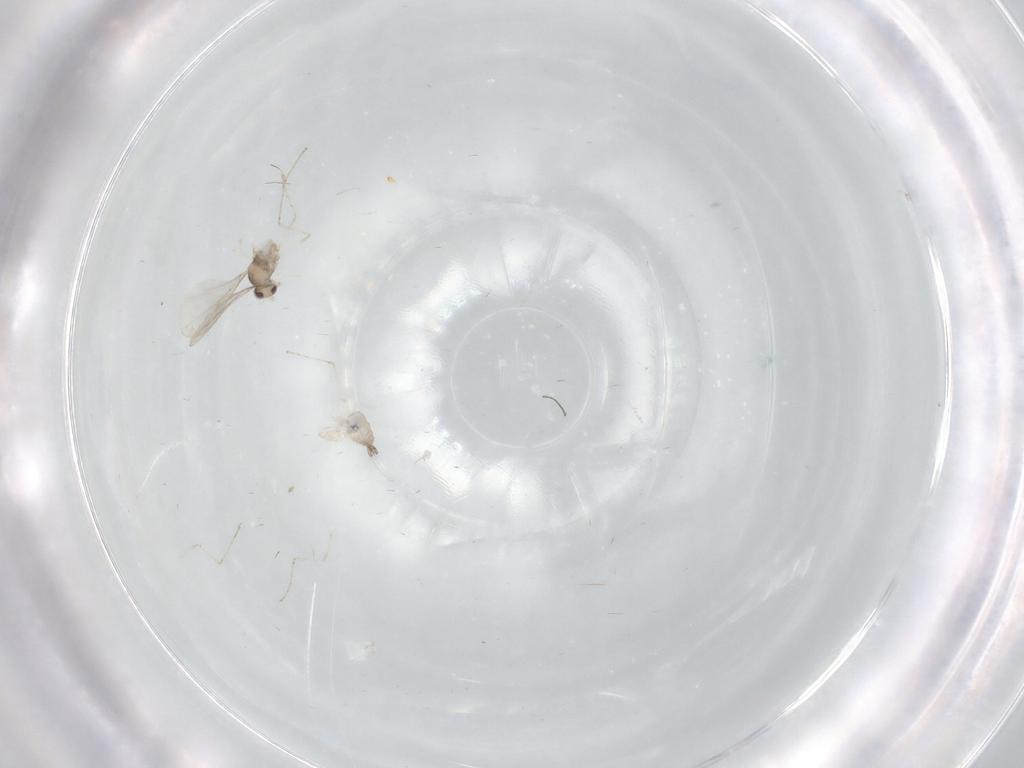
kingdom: Animalia
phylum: Arthropoda
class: Insecta
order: Diptera
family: Cecidomyiidae
